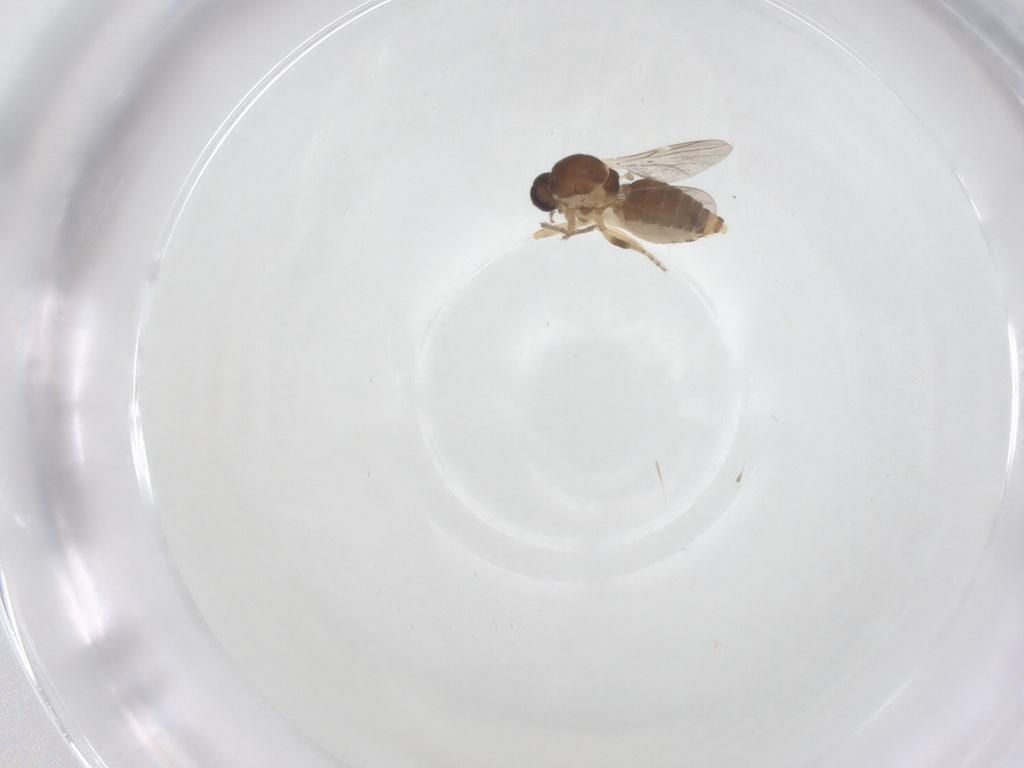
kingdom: Animalia
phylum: Arthropoda
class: Insecta
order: Diptera
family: Ceratopogonidae
